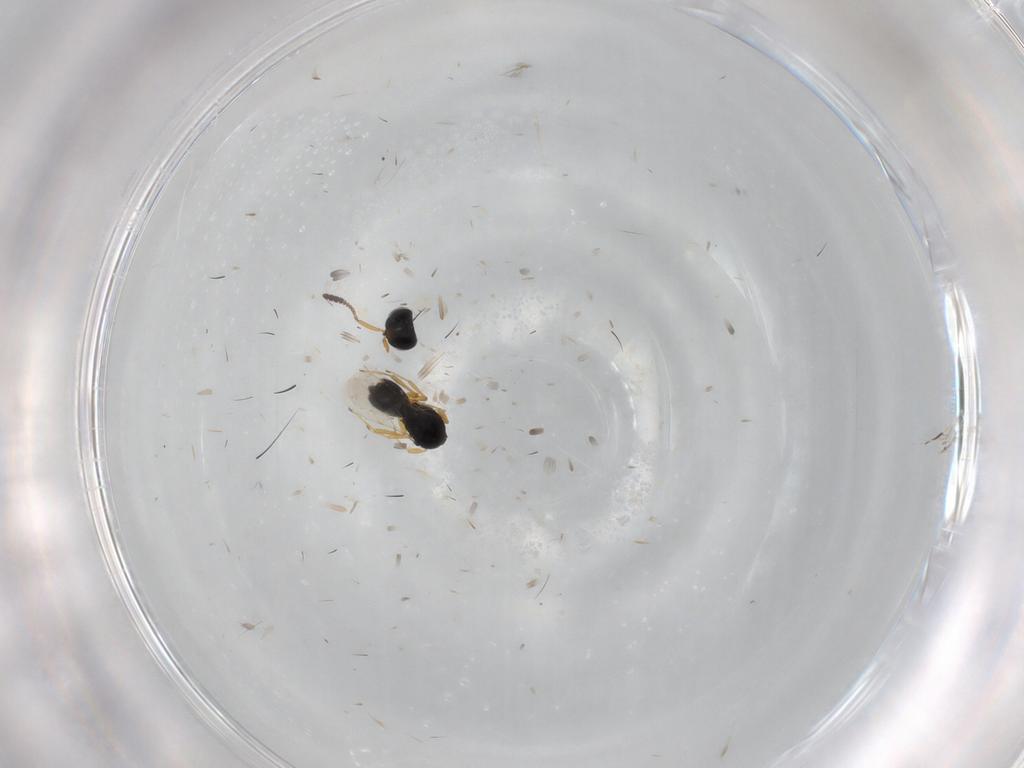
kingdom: Animalia
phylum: Arthropoda
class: Insecta
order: Hymenoptera
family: Scelionidae
